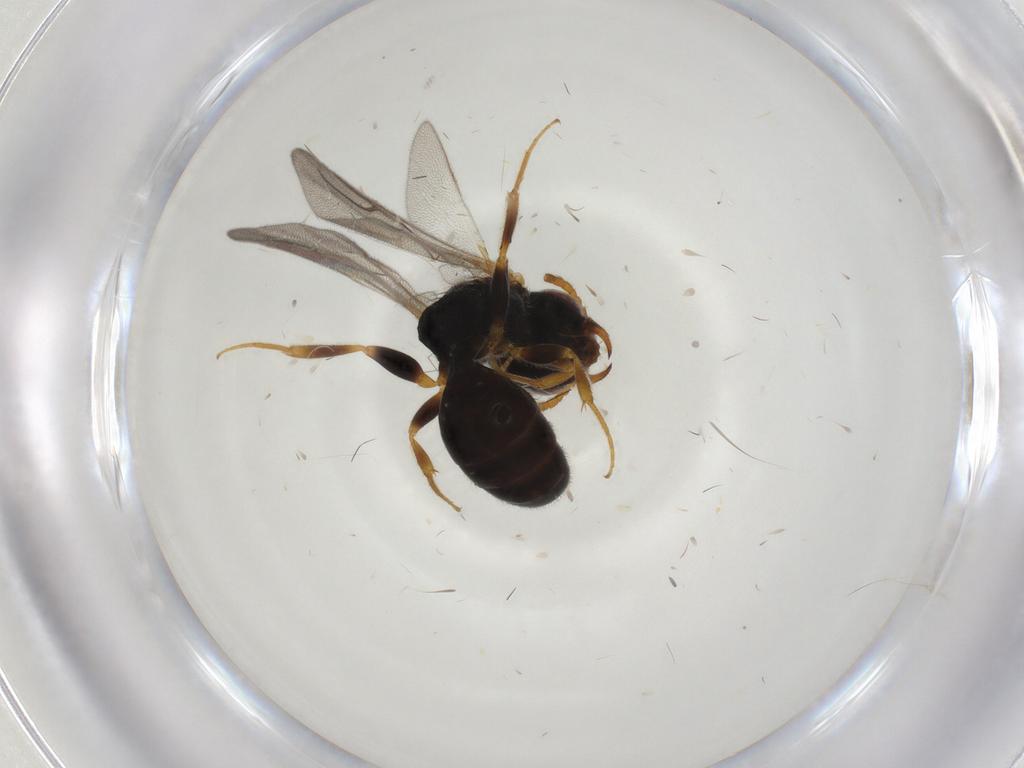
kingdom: Animalia
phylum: Arthropoda
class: Insecta
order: Hymenoptera
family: Bethylidae
